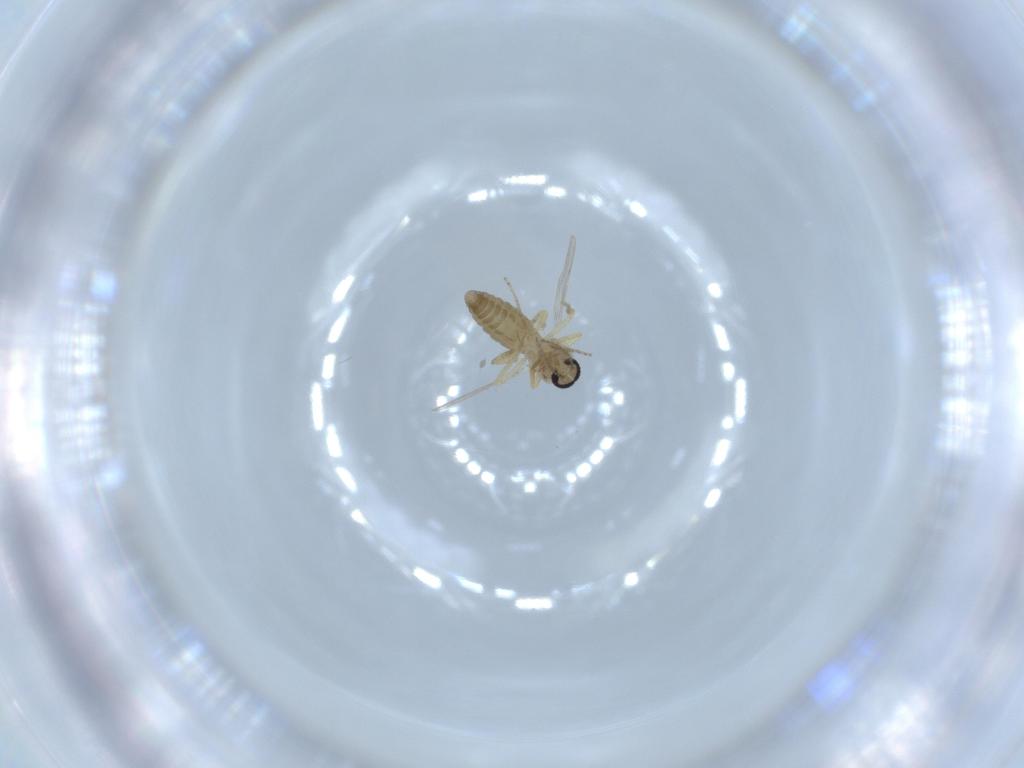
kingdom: Animalia
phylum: Arthropoda
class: Insecta
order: Diptera
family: Ceratopogonidae
